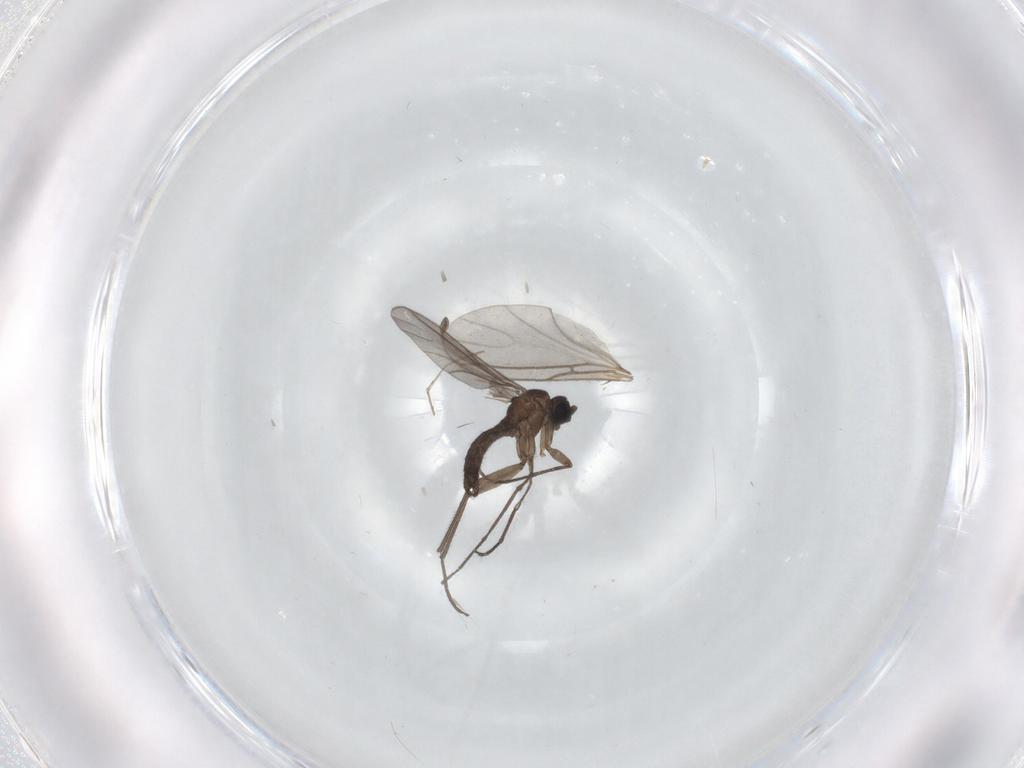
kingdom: Animalia
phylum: Arthropoda
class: Insecta
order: Diptera
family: Sciaridae
